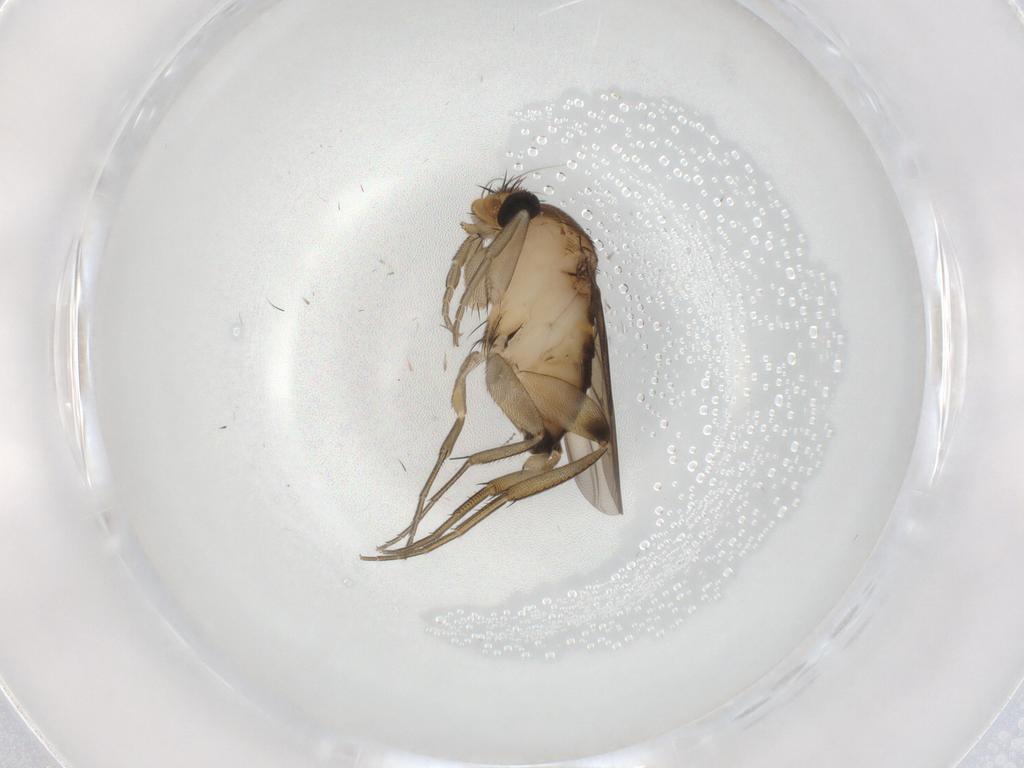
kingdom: Animalia
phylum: Arthropoda
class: Insecta
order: Diptera
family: Phoridae
